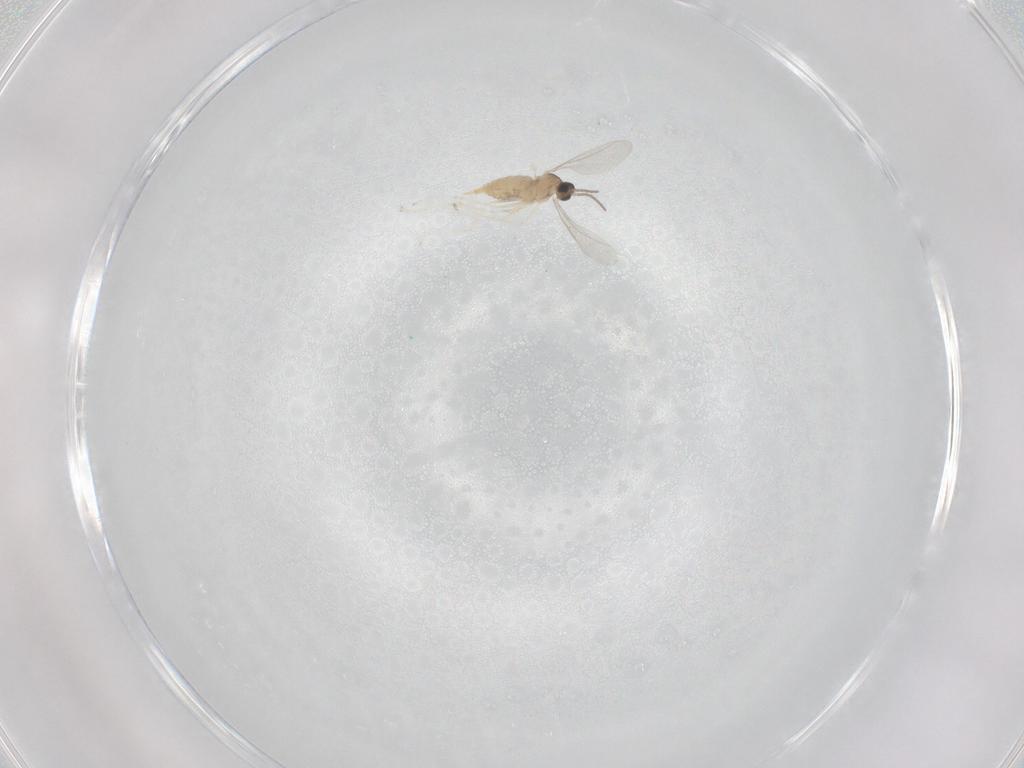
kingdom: Animalia
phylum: Arthropoda
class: Insecta
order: Diptera
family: Cecidomyiidae
